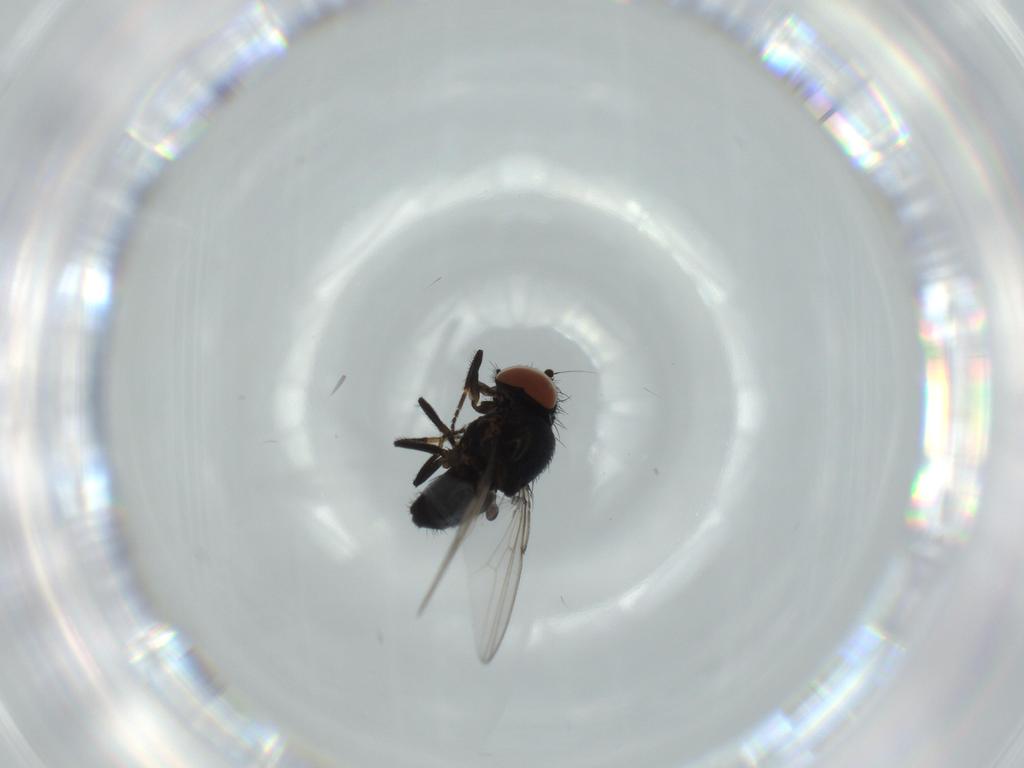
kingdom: Animalia
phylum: Arthropoda
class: Insecta
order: Diptera
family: Milichiidae
